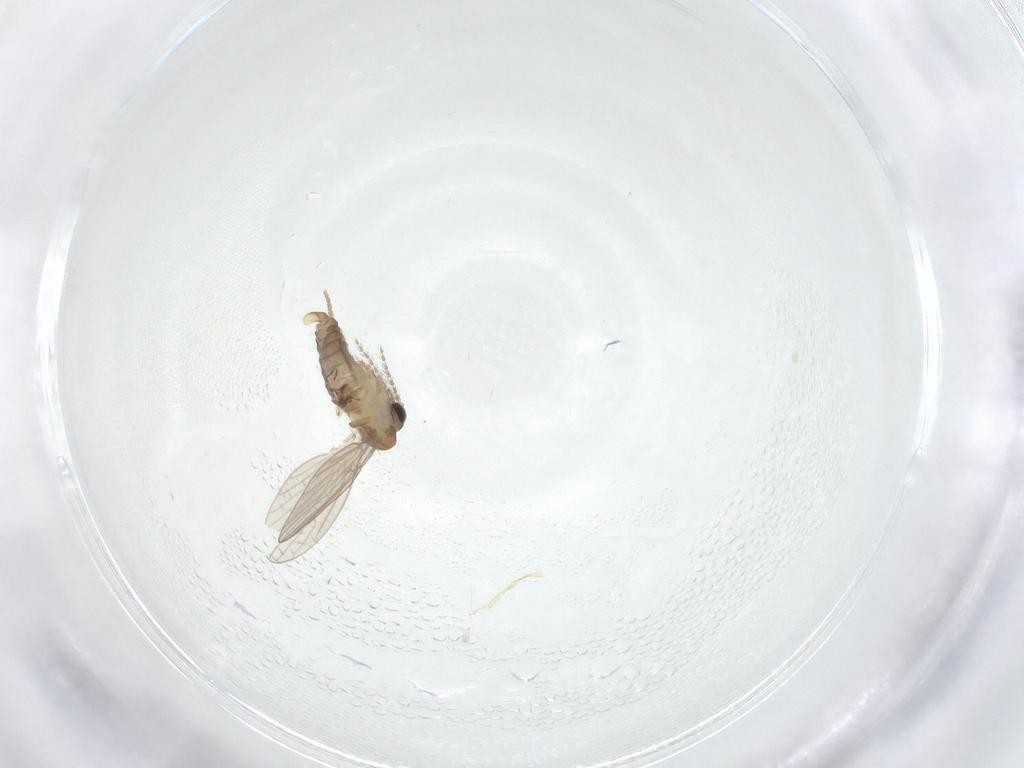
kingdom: Animalia
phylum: Arthropoda
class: Insecta
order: Diptera
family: Psychodidae
